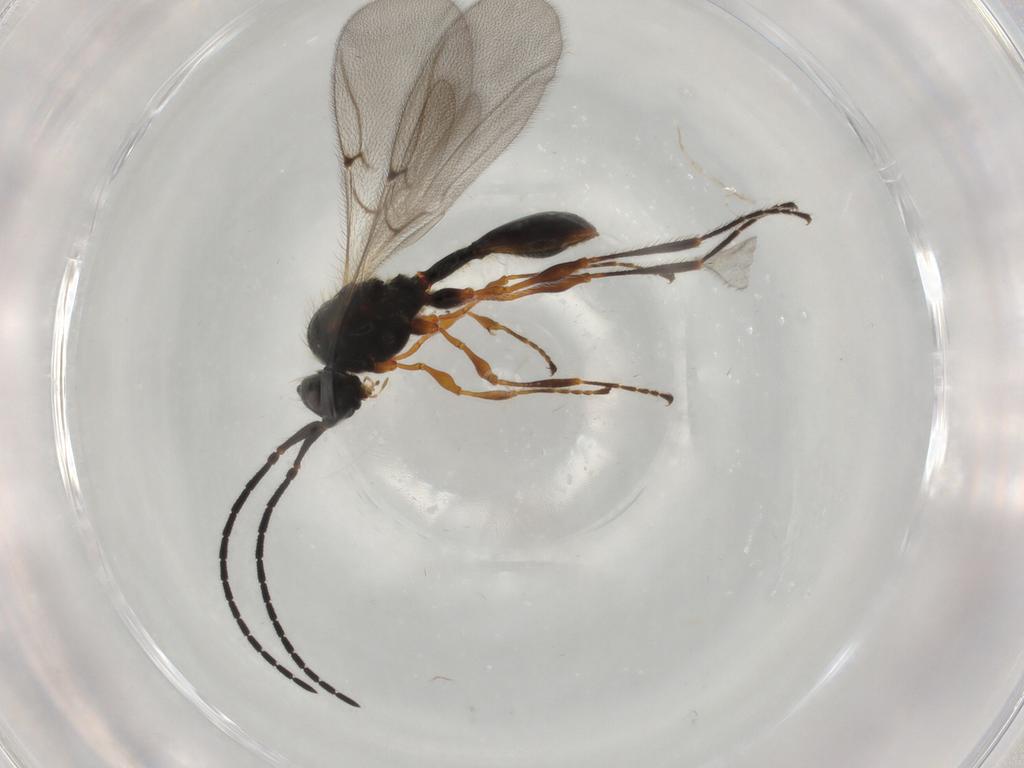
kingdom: Animalia
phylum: Arthropoda
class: Insecta
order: Hymenoptera
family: Diapriidae
